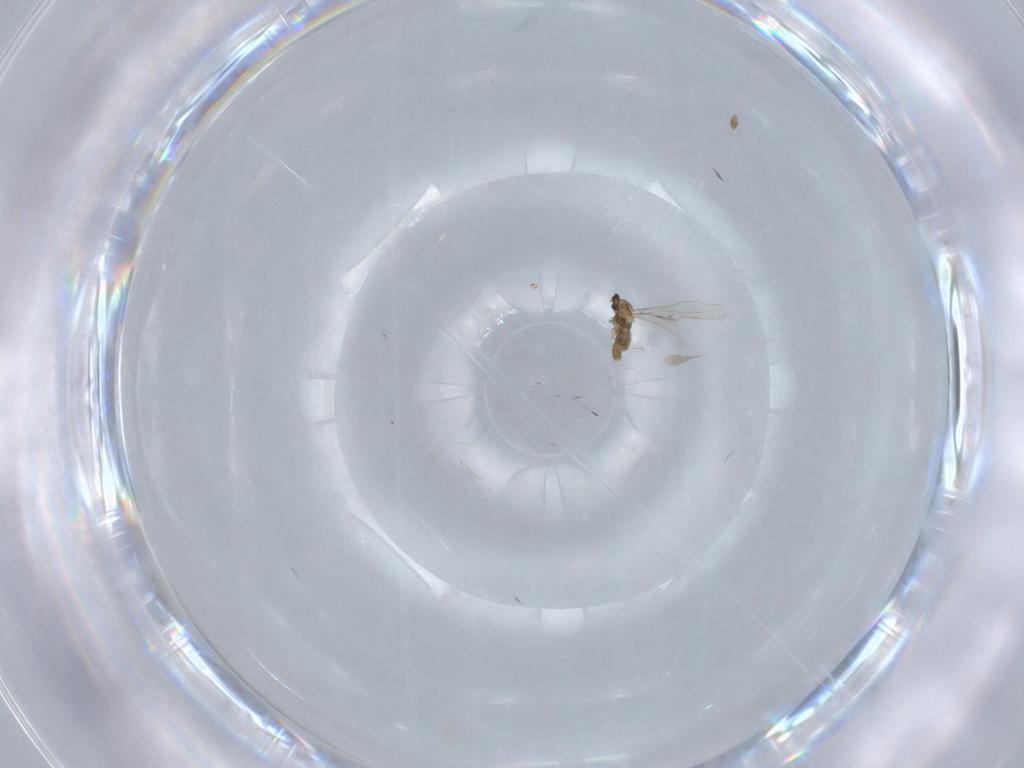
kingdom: Animalia
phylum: Arthropoda
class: Insecta
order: Diptera
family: Cecidomyiidae
